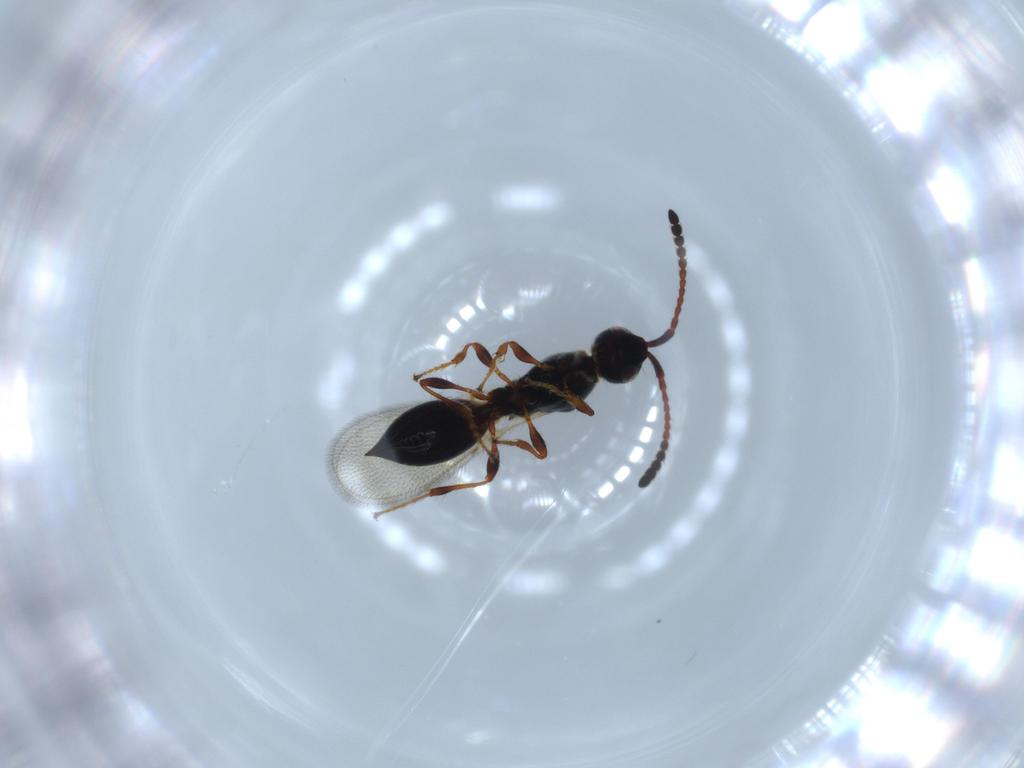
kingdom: Animalia
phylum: Arthropoda
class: Insecta
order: Hymenoptera
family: Diapriidae
